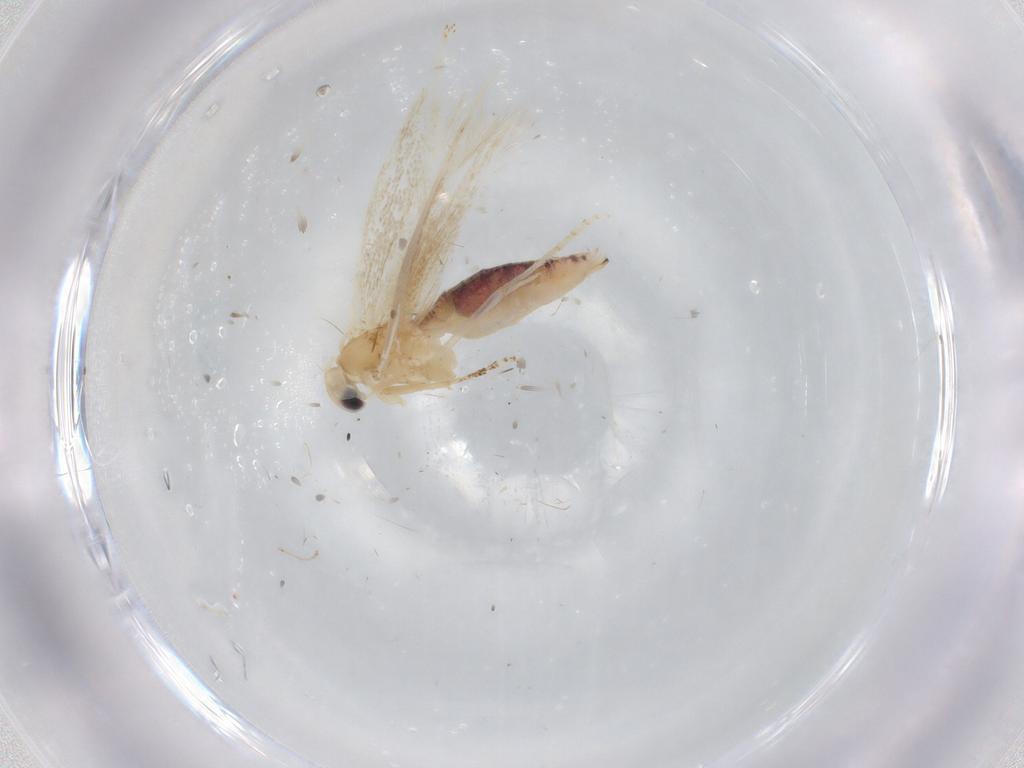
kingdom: Animalia
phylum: Arthropoda
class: Insecta
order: Lepidoptera
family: Bucculatricidae
